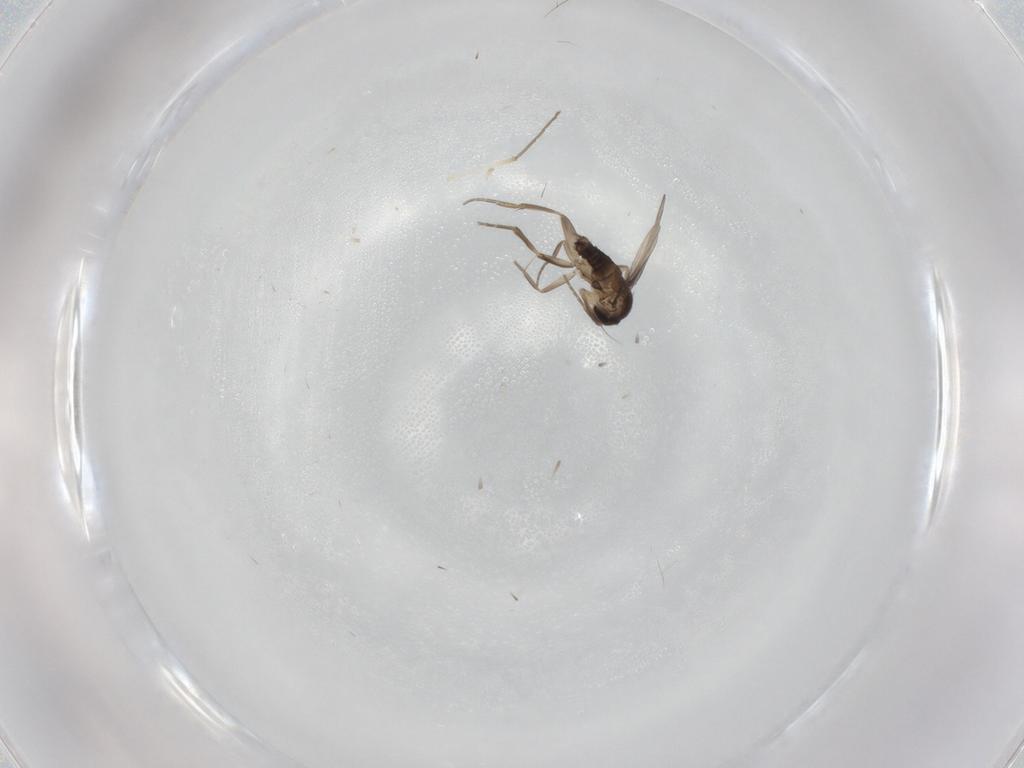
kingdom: Animalia
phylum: Arthropoda
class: Insecta
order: Diptera
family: Chironomidae
